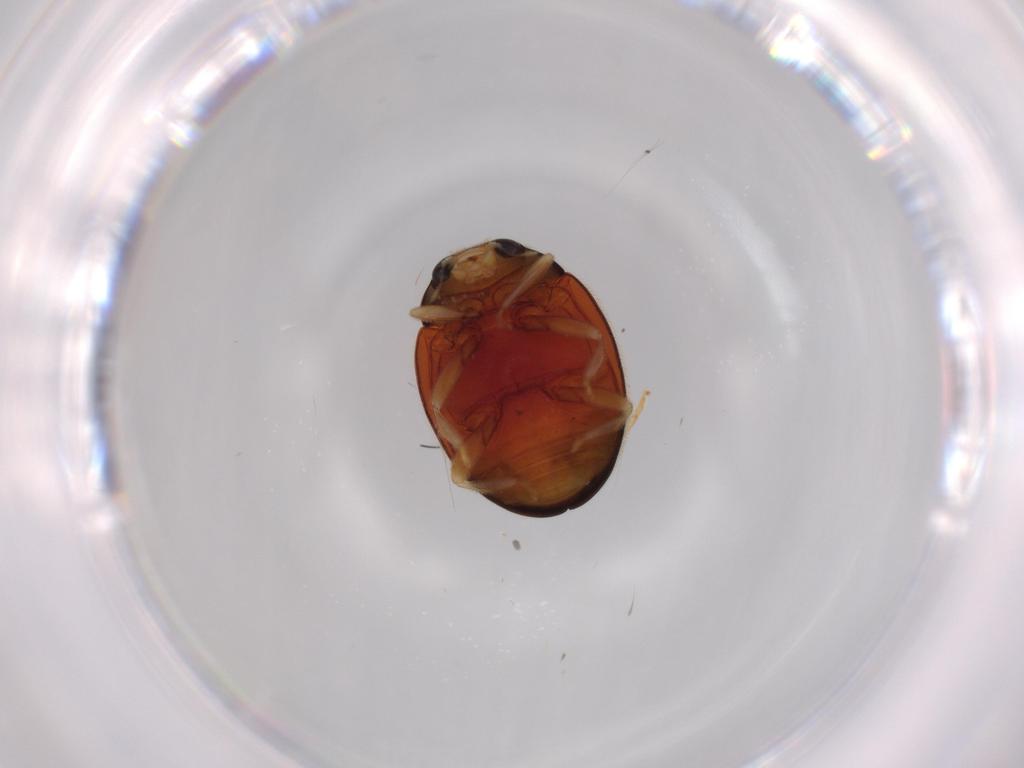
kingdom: Animalia
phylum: Arthropoda
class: Insecta
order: Coleoptera
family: Coccinellidae
